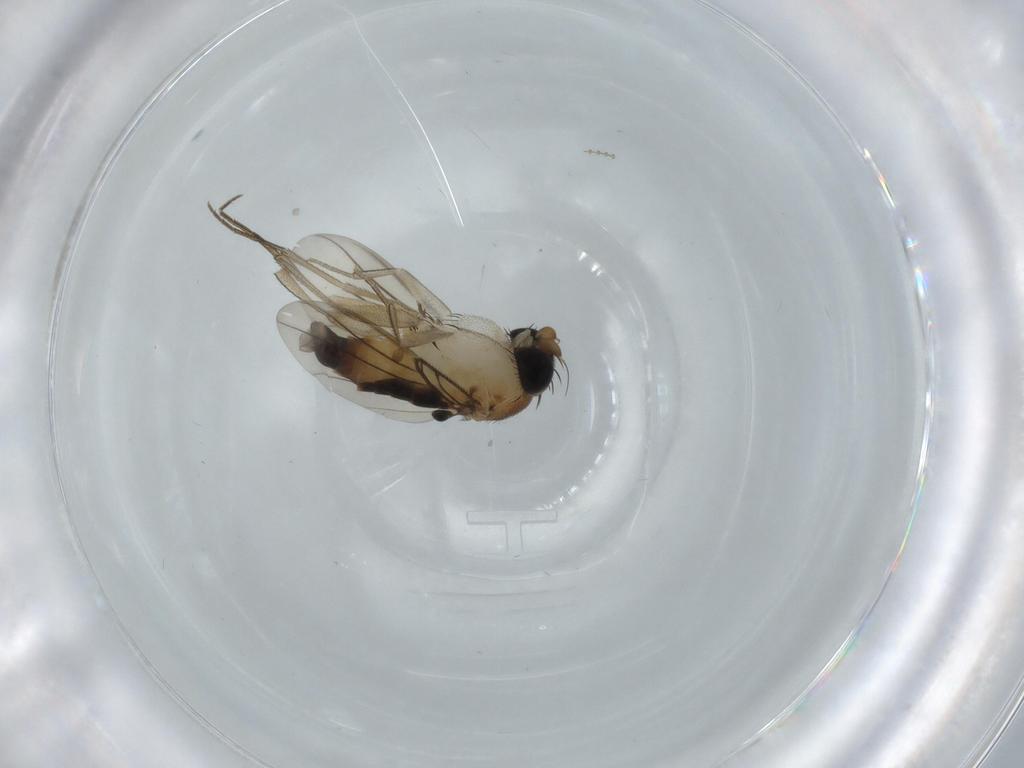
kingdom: Animalia
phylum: Arthropoda
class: Insecta
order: Diptera
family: Phoridae
